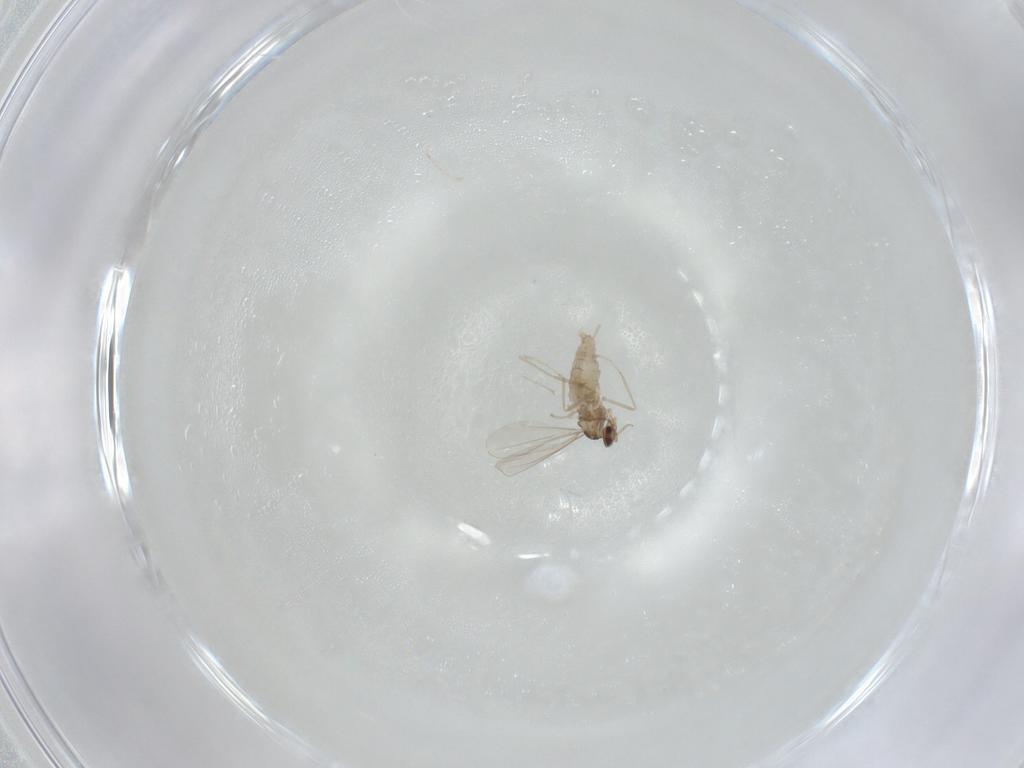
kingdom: Animalia
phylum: Arthropoda
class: Insecta
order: Diptera
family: Cecidomyiidae
